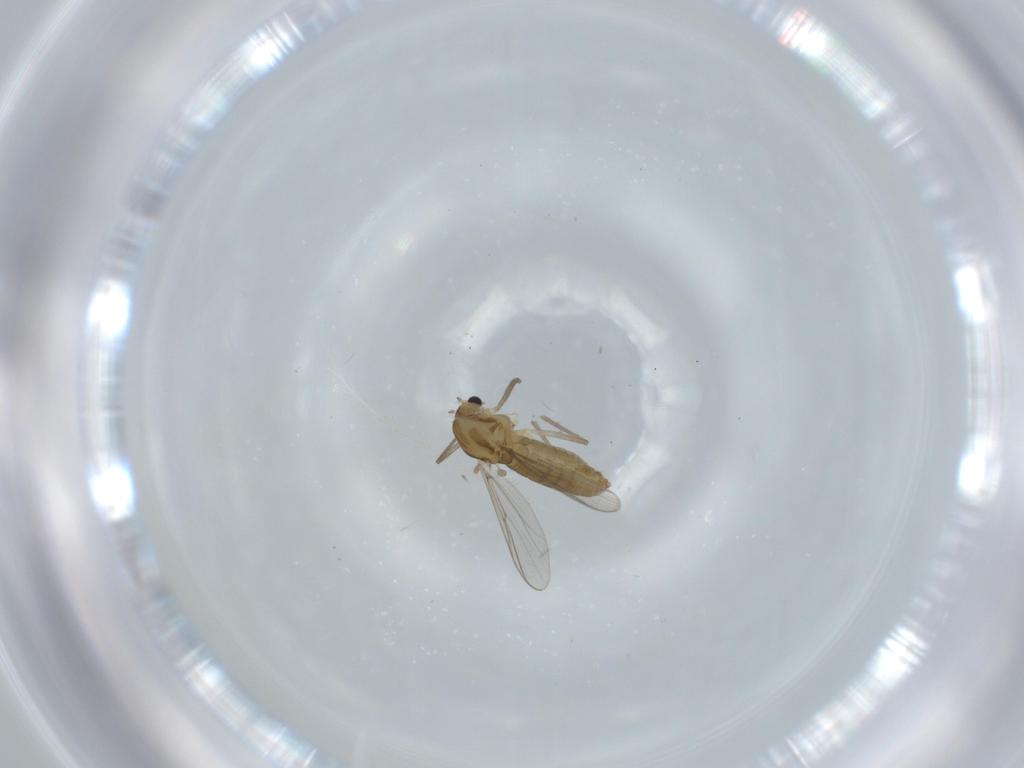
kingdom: Animalia
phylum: Arthropoda
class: Insecta
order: Diptera
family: Chironomidae
